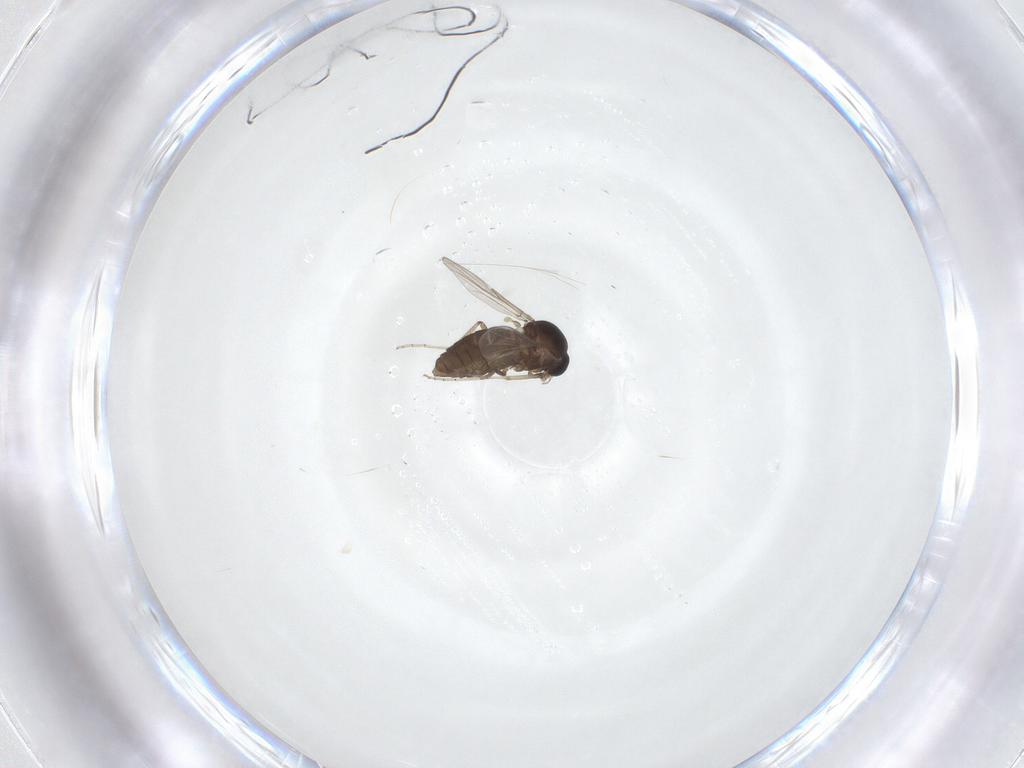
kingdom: Animalia
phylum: Arthropoda
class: Insecta
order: Diptera
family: Ceratopogonidae
